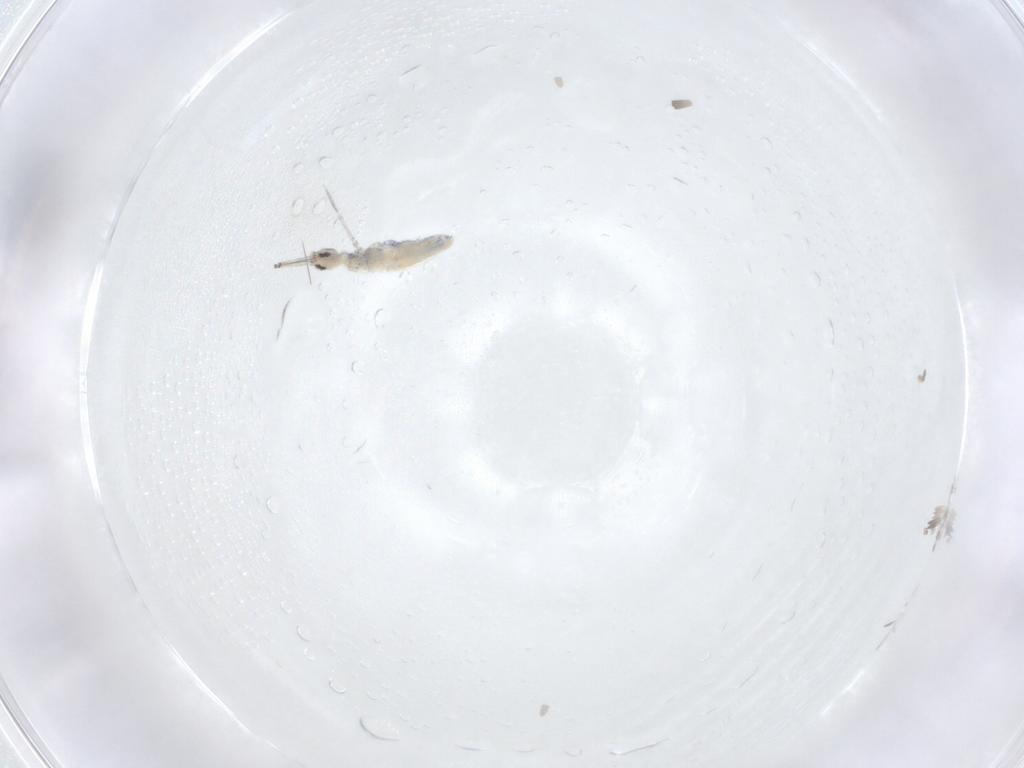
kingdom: Animalia
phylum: Arthropoda
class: Collembola
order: Entomobryomorpha
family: Entomobryidae
